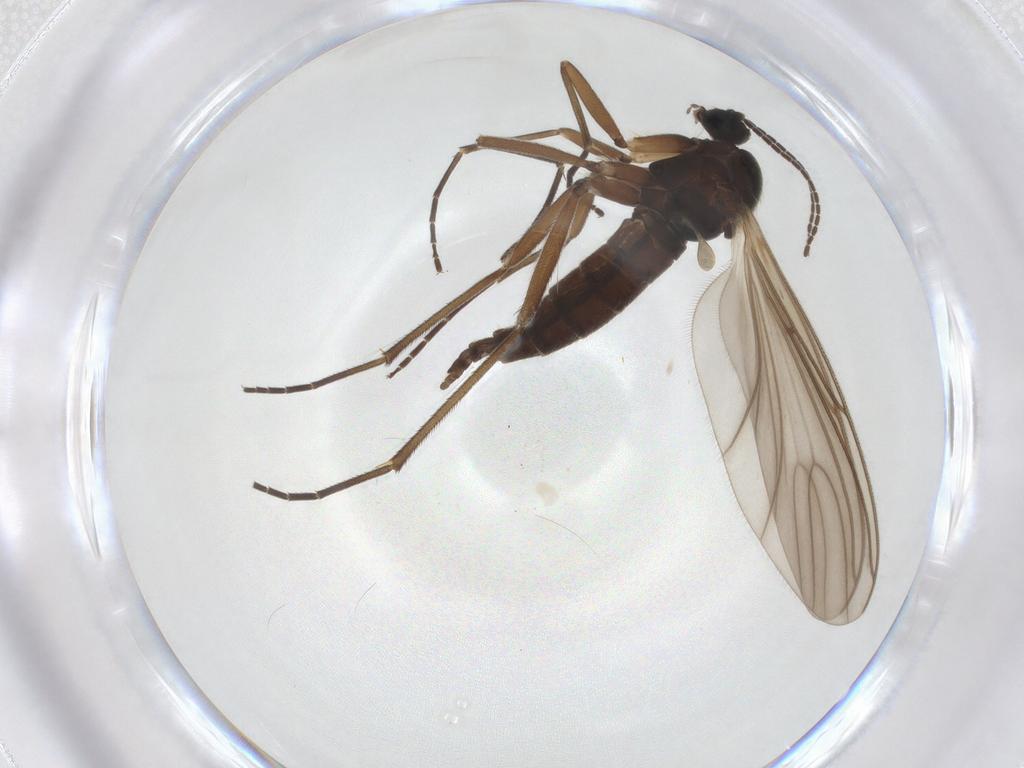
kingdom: Animalia
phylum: Arthropoda
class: Insecta
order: Diptera
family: Sciaridae
